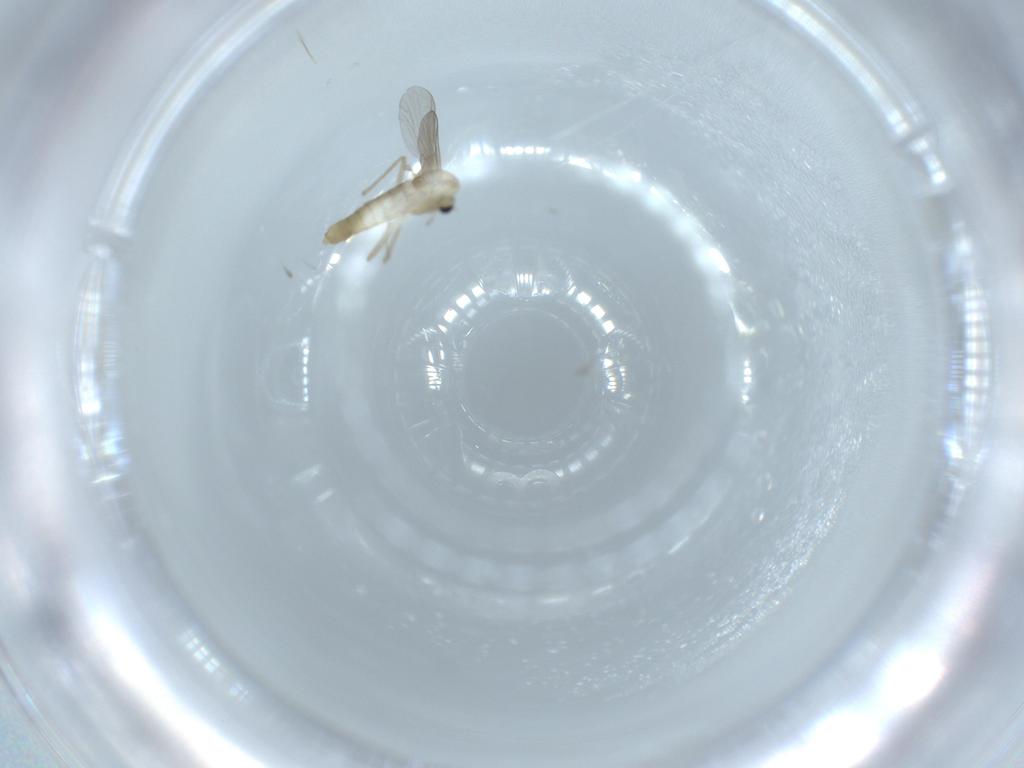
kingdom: Animalia
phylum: Arthropoda
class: Insecta
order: Diptera
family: Chironomidae
